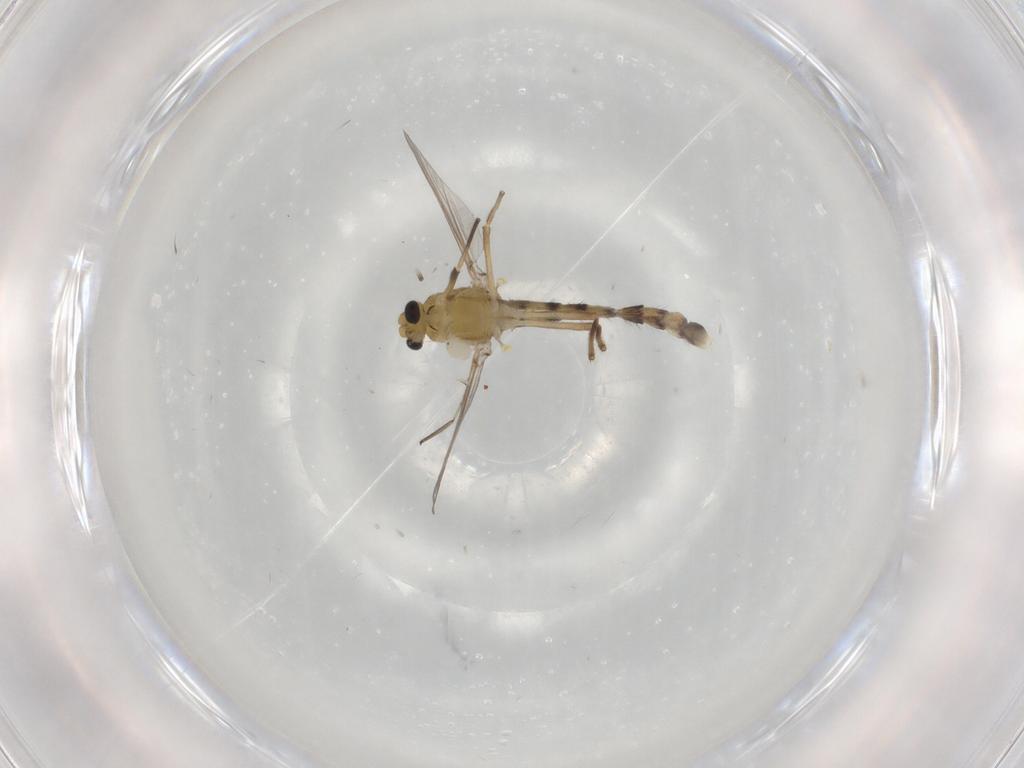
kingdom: Animalia
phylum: Arthropoda
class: Insecta
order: Diptera
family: Chironomidae
